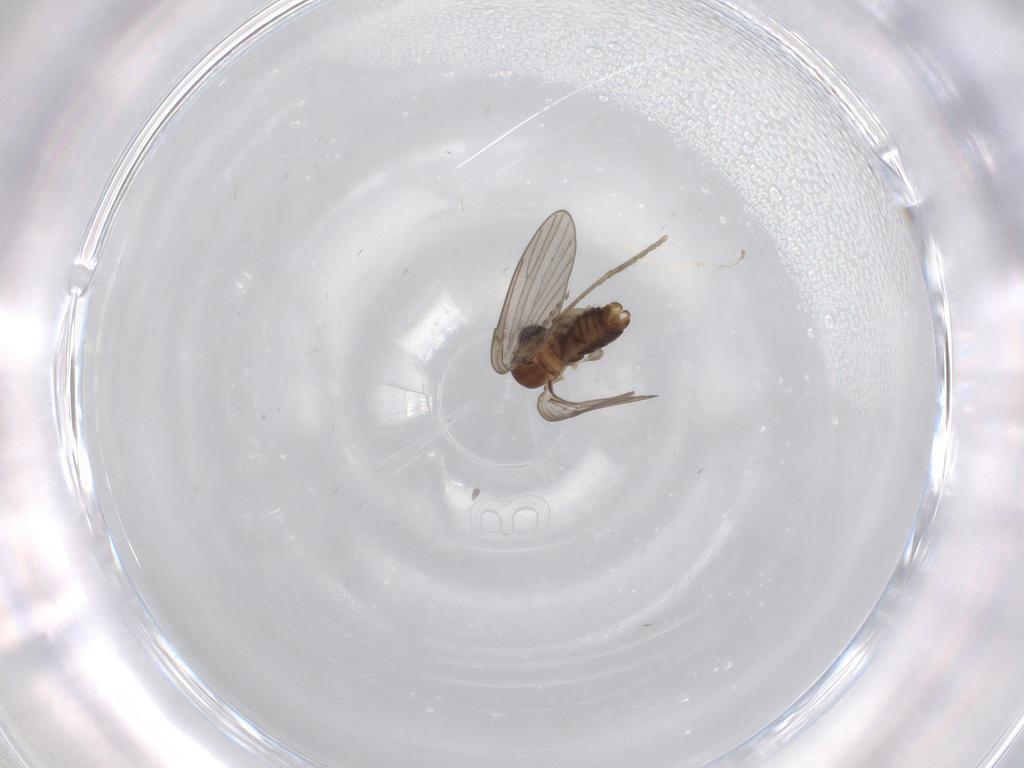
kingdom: Animalia
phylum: Arthropoda
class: Insecta
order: Diptera
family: Psychodidae
